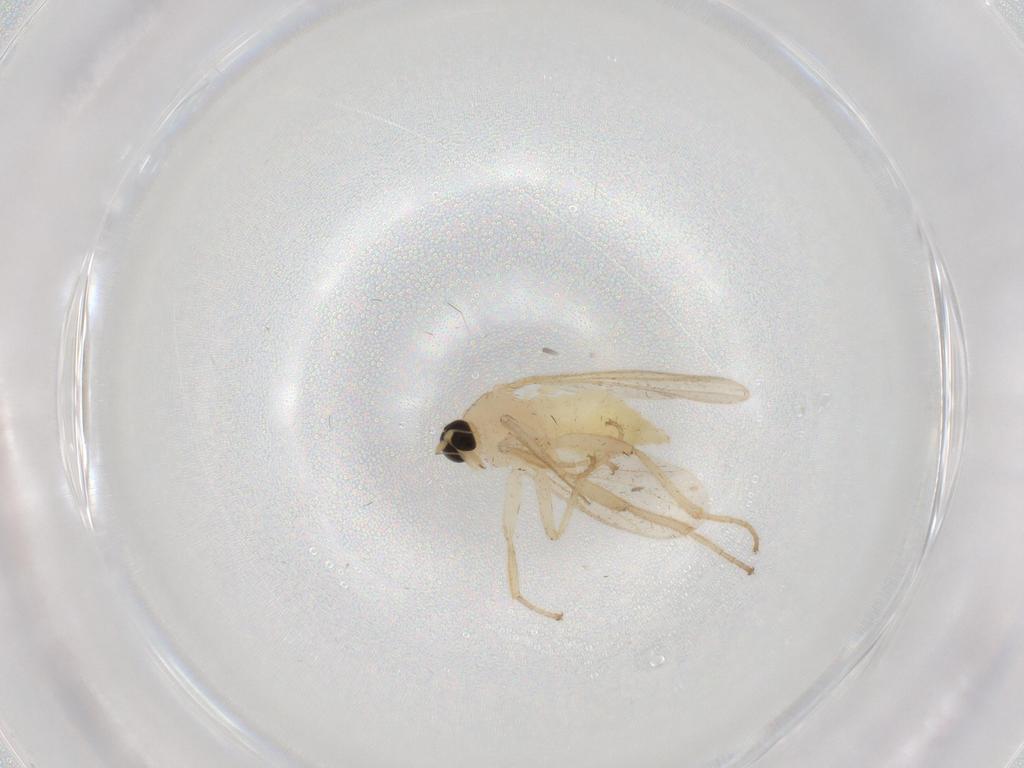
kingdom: Animalia
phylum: Arthropoda
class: Insecta
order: Diptera
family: Hybotidae
